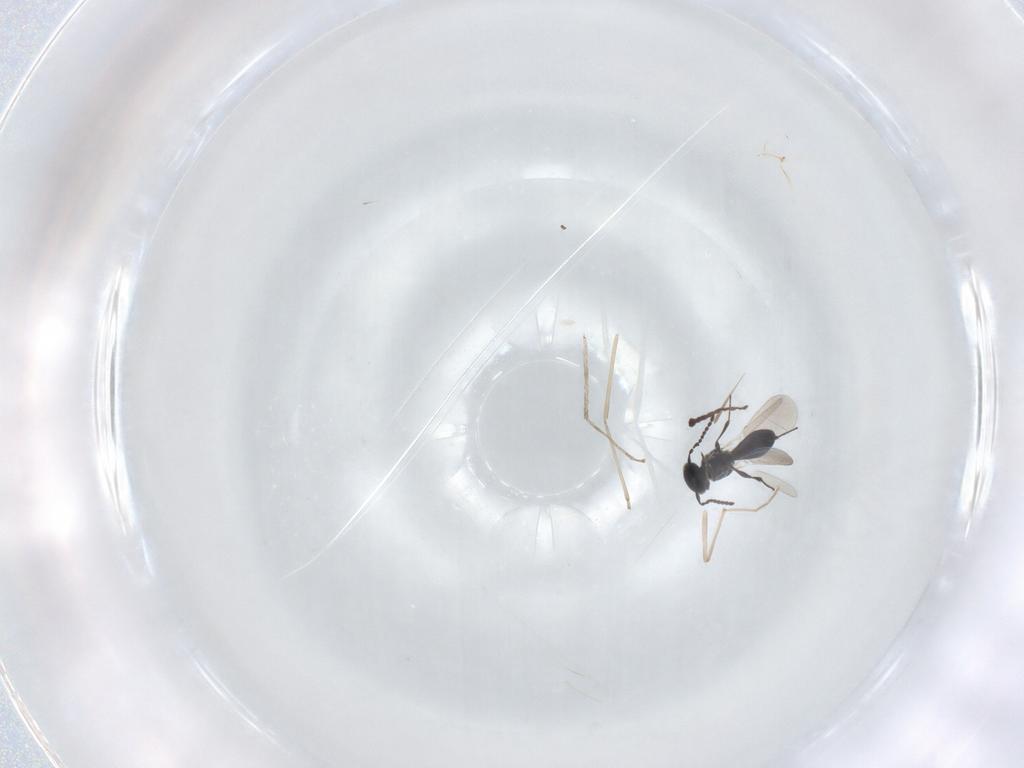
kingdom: Animalia
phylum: Arthropoda
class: Insecta
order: Hymenoptera
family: Platygastridae
